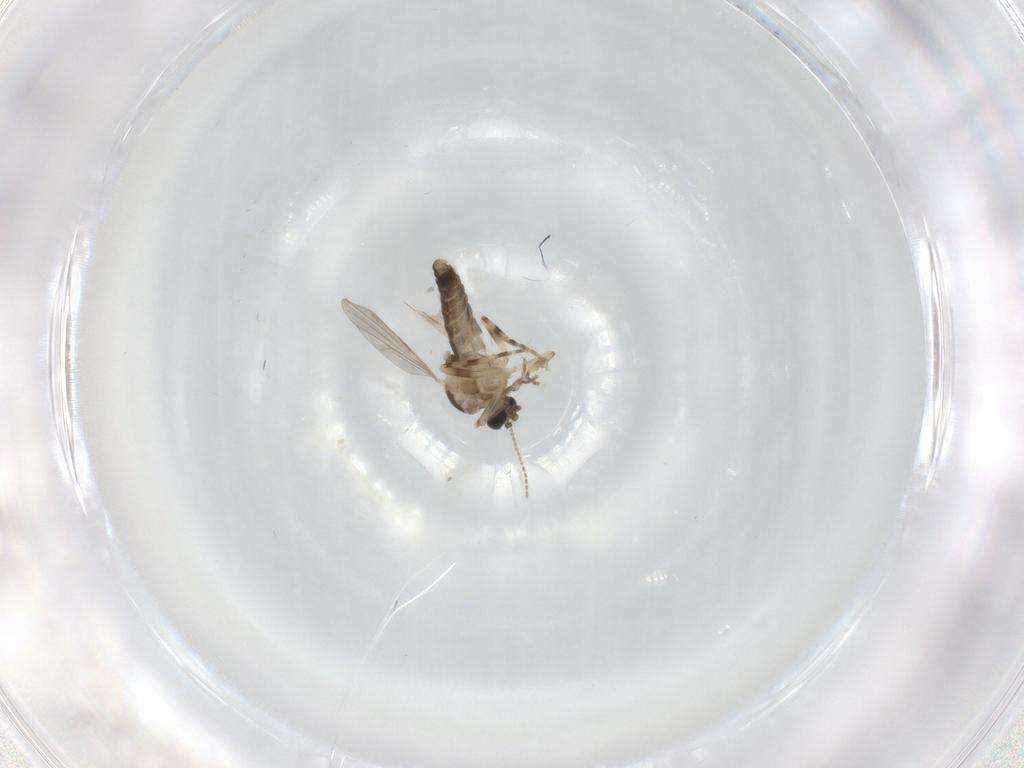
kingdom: Animalia
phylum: Arthropoda
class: Insecta
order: Diptera
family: Ceratopogonidae
